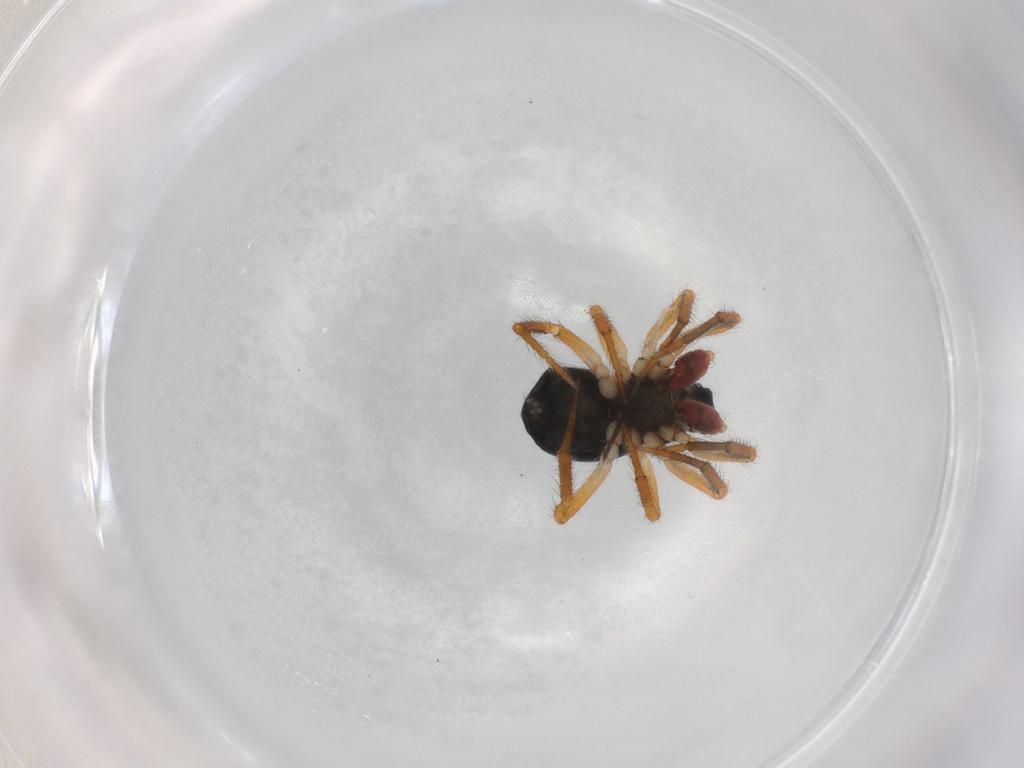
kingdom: Animalia
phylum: Arthropoda
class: Arachnida
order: Araneae
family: Theridiidae
